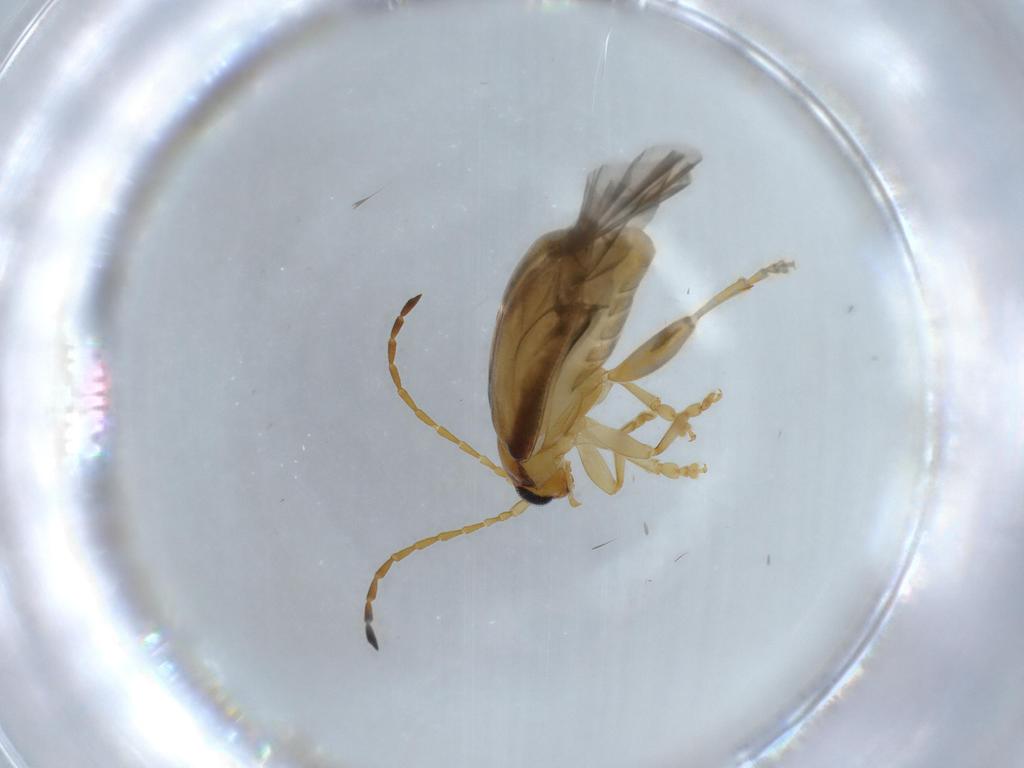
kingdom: Animalia
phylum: Arthropoda
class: Insecta
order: Coleoptera
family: Chrysomelidae
